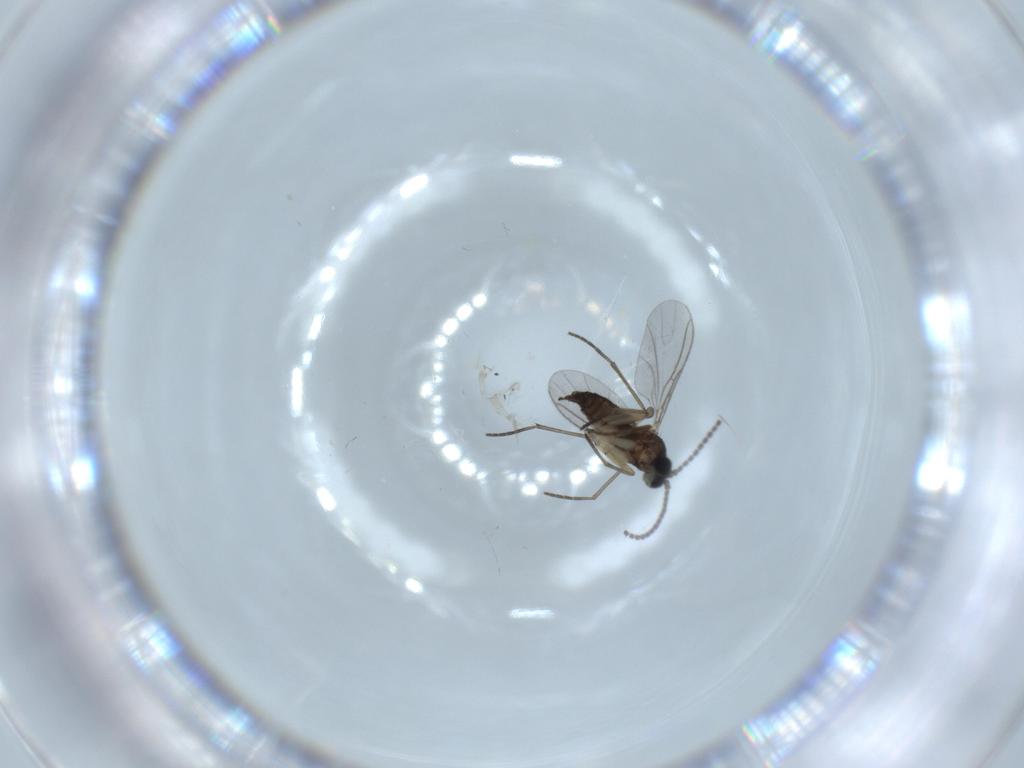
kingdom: Animalia
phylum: Arthropoda
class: Insecta
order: Diptera
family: Sciaridae
